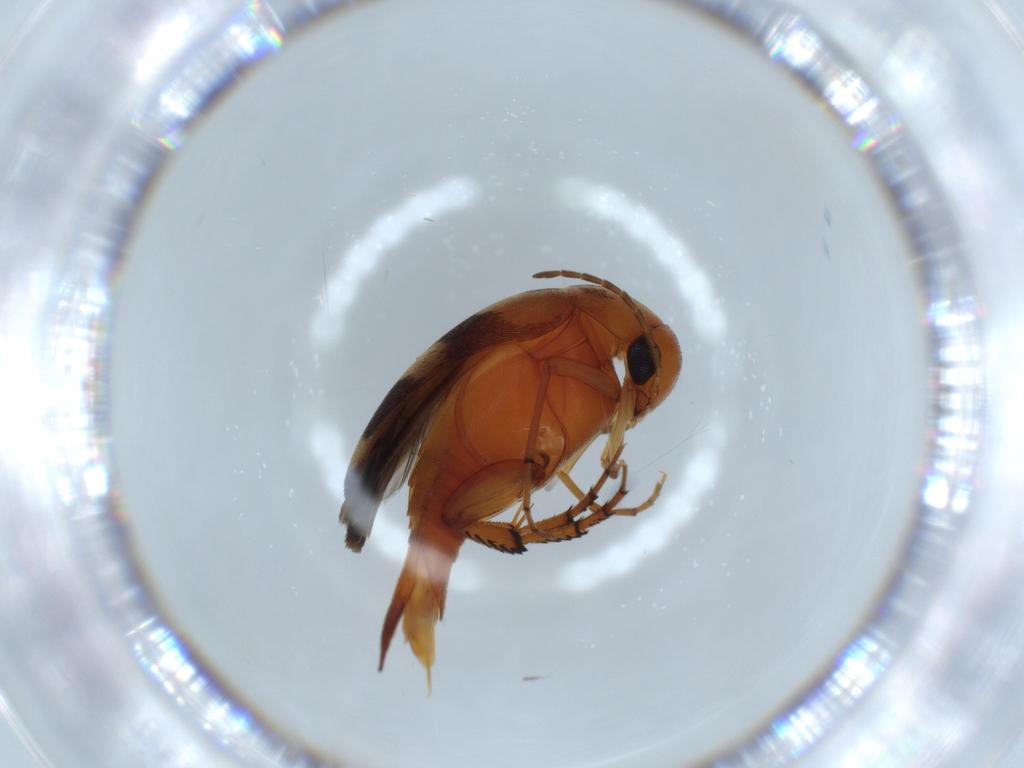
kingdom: Animalia
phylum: Arthropoda
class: Insecta
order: Coleoptera
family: Mordellidae
